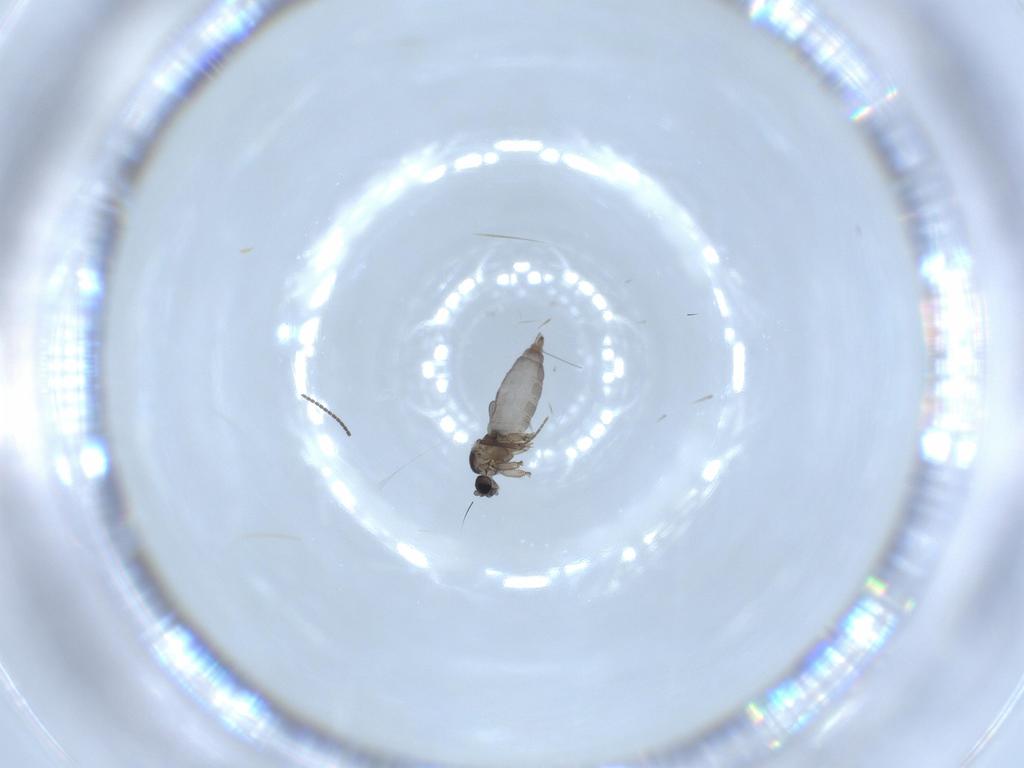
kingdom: Animalia
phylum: Arthropoda
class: Insecta
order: Diptera
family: Sciaridae
